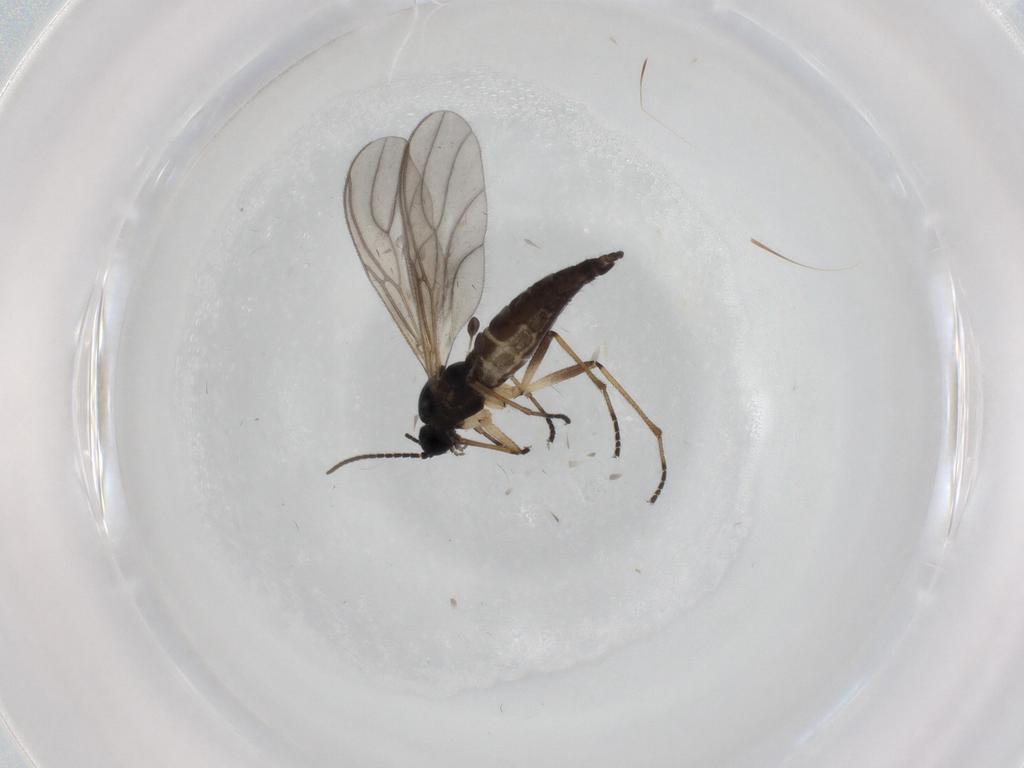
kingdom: Animalia
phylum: Arthropoda
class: Insecta
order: Diptera
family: Sciaridae
